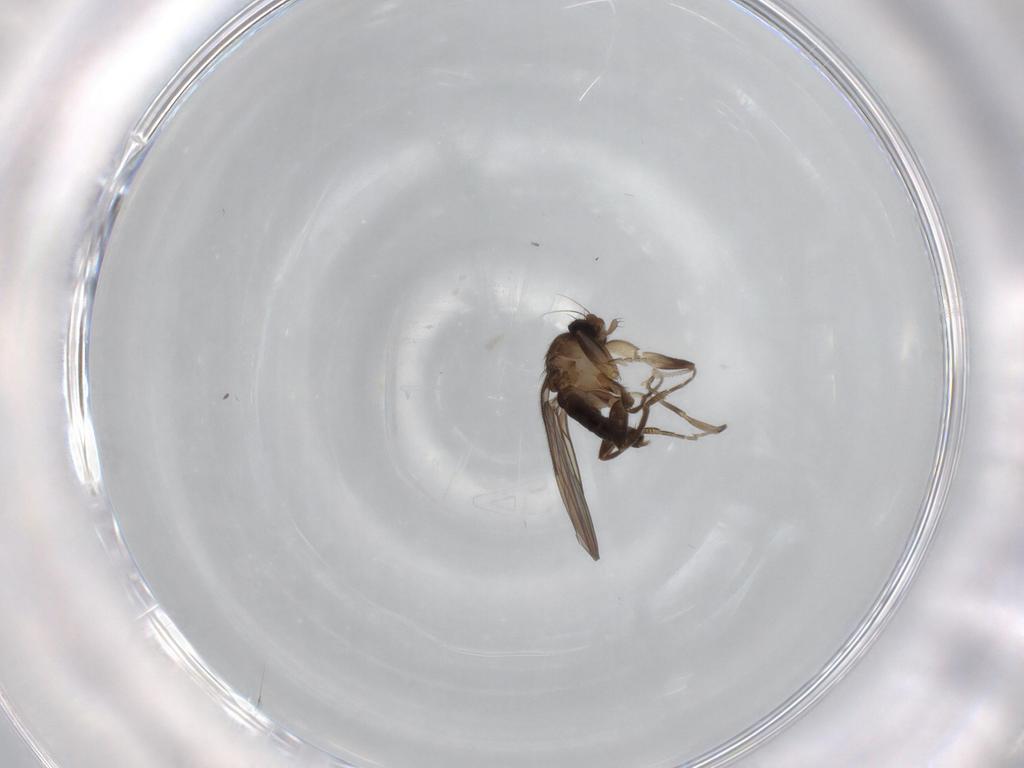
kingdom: Animalia
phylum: Arthropoda
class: Insecta
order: Diptera
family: Phoridae
